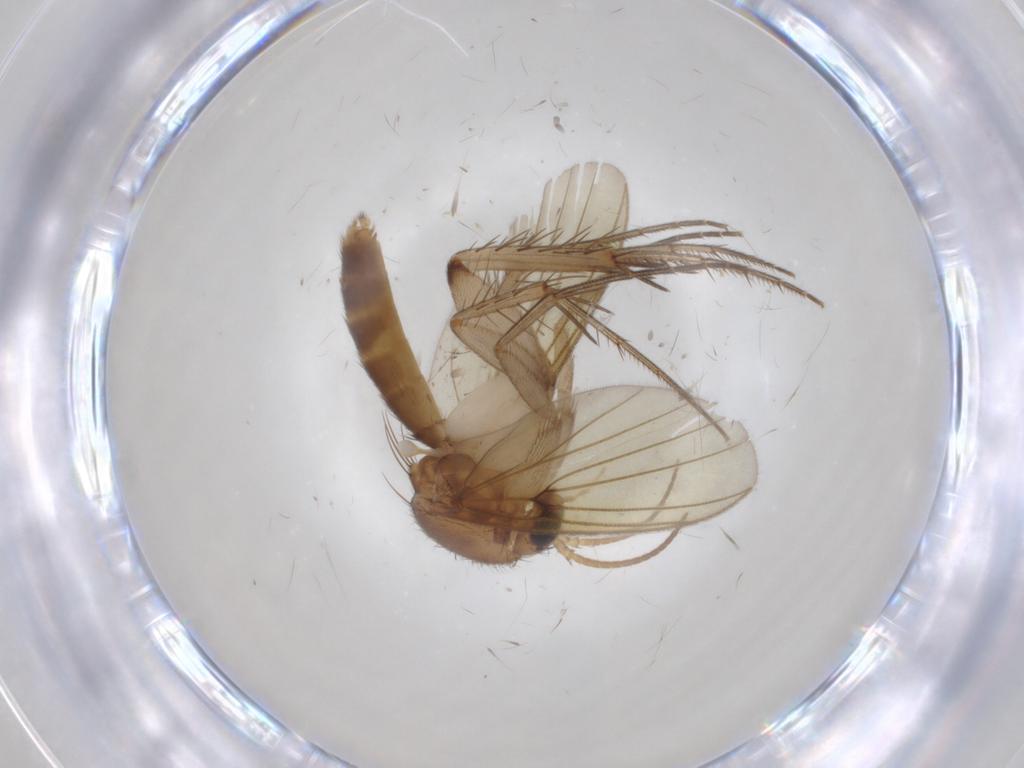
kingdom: Animalia
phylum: Arthropoda
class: Insecta
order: Diptera
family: Mycetophilidae
